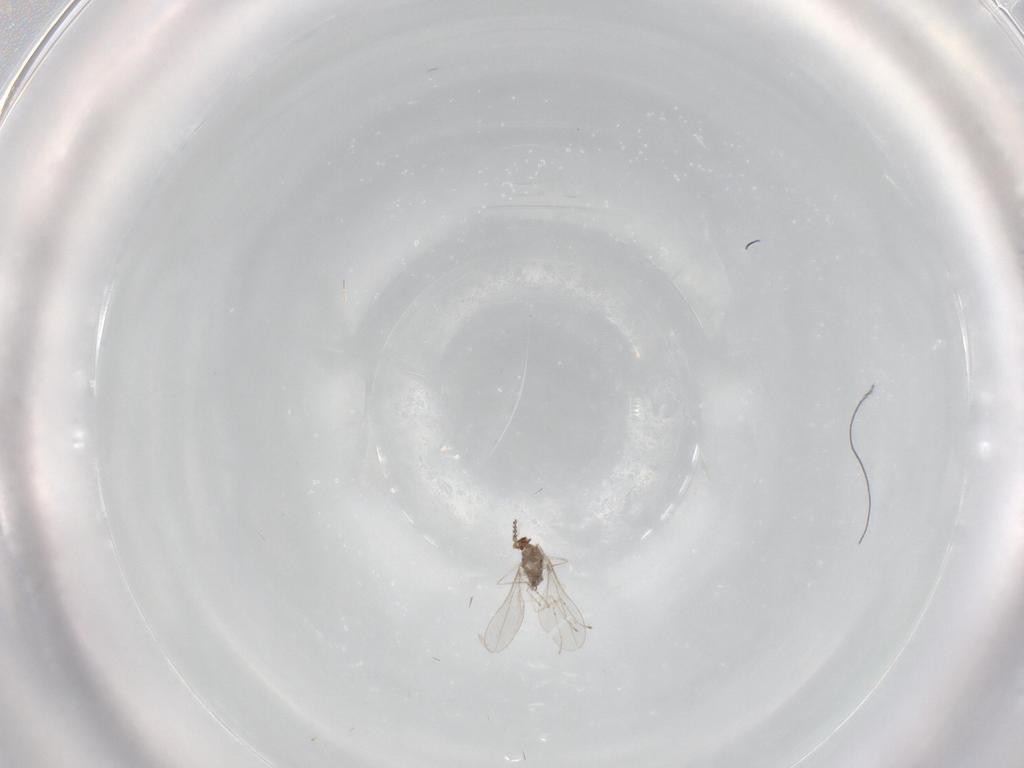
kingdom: Animalia
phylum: Arthropoda
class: Insecta
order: Diptera
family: Cecidomyiidae
